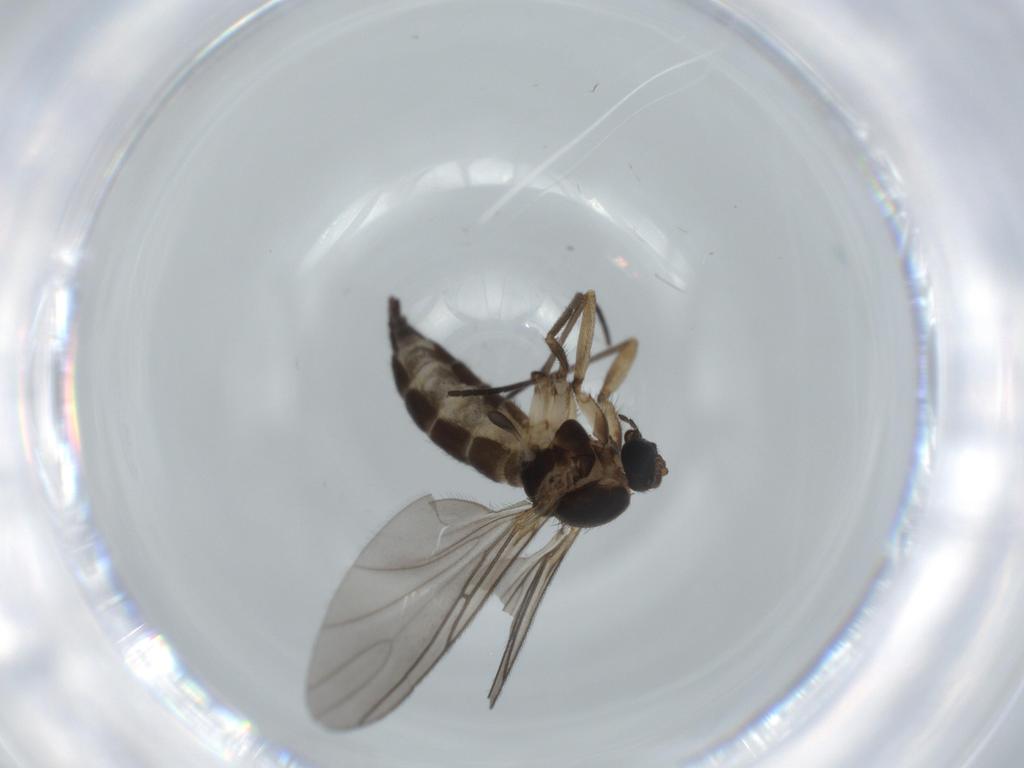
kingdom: Animalia
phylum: Arthropoda
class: Insecta
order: Diptera
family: Sciaridae
